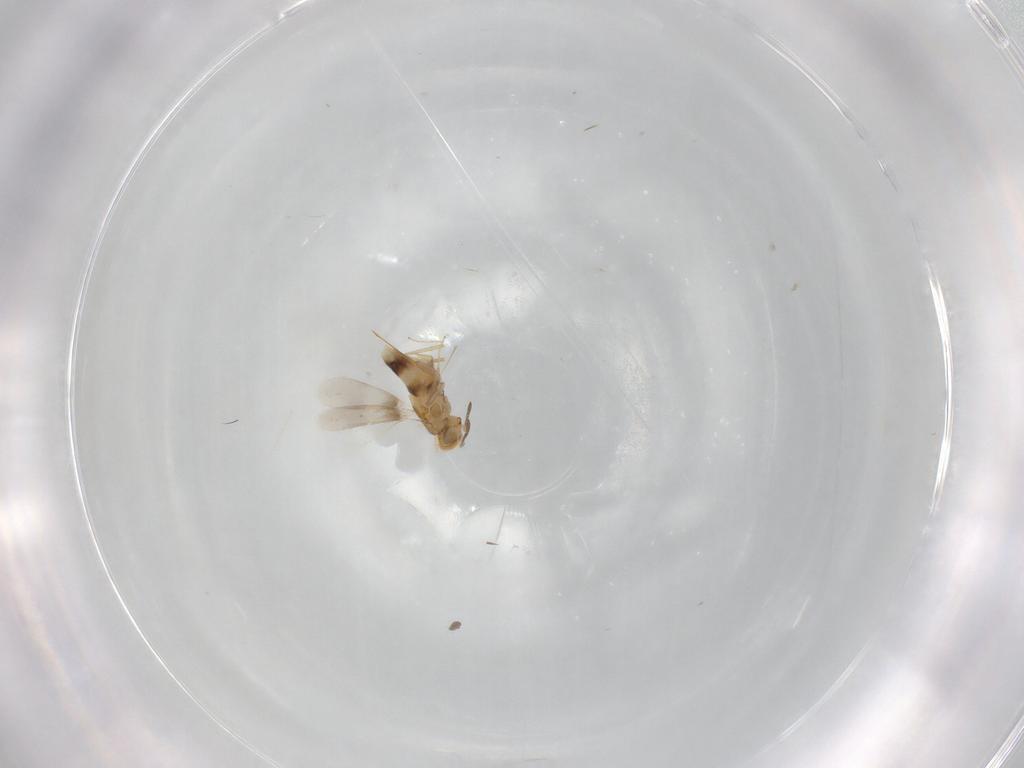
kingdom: Animalia
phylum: Arthropoda
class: Insecta
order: Hymenoptera
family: Aphelinidae
